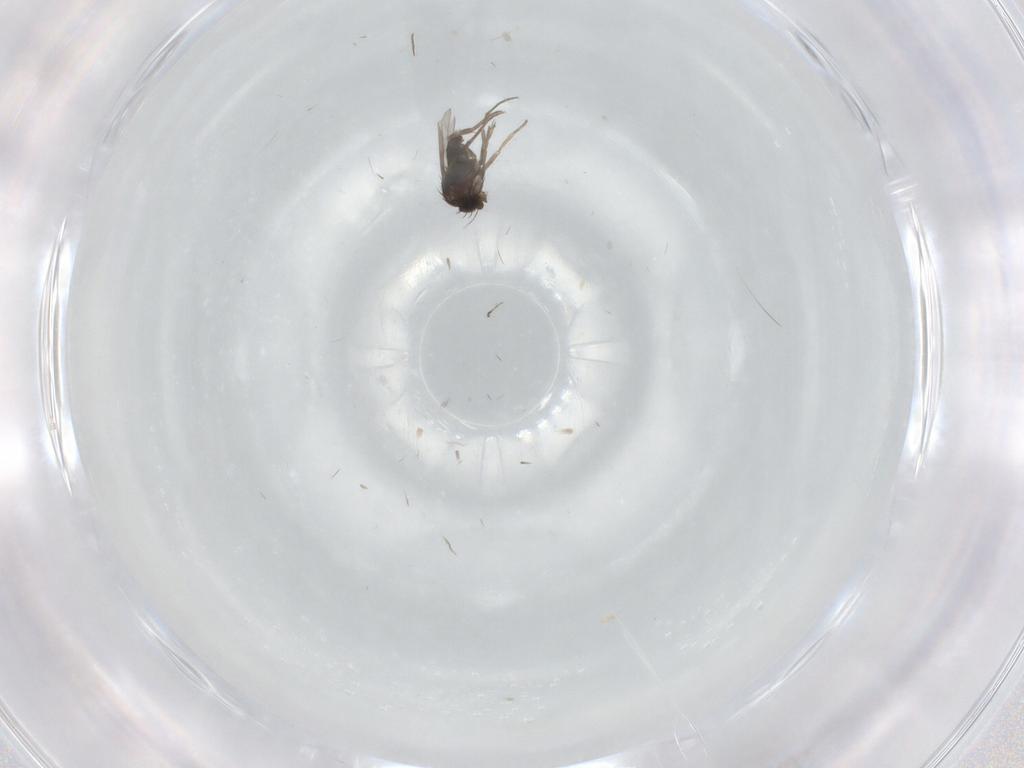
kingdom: Animalia
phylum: Arthropoda
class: Insecta
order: Diptera
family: Phoridae
